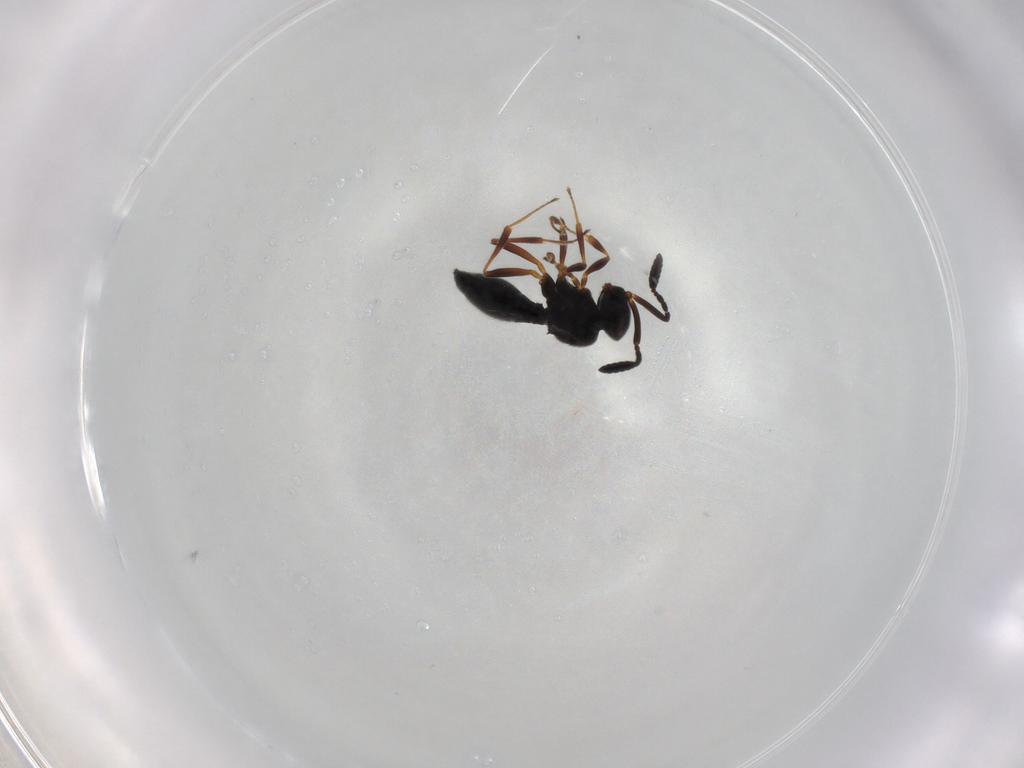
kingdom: Animalia
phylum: Arthropoda
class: Insecta
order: Hymenoptera
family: Scelionidae
